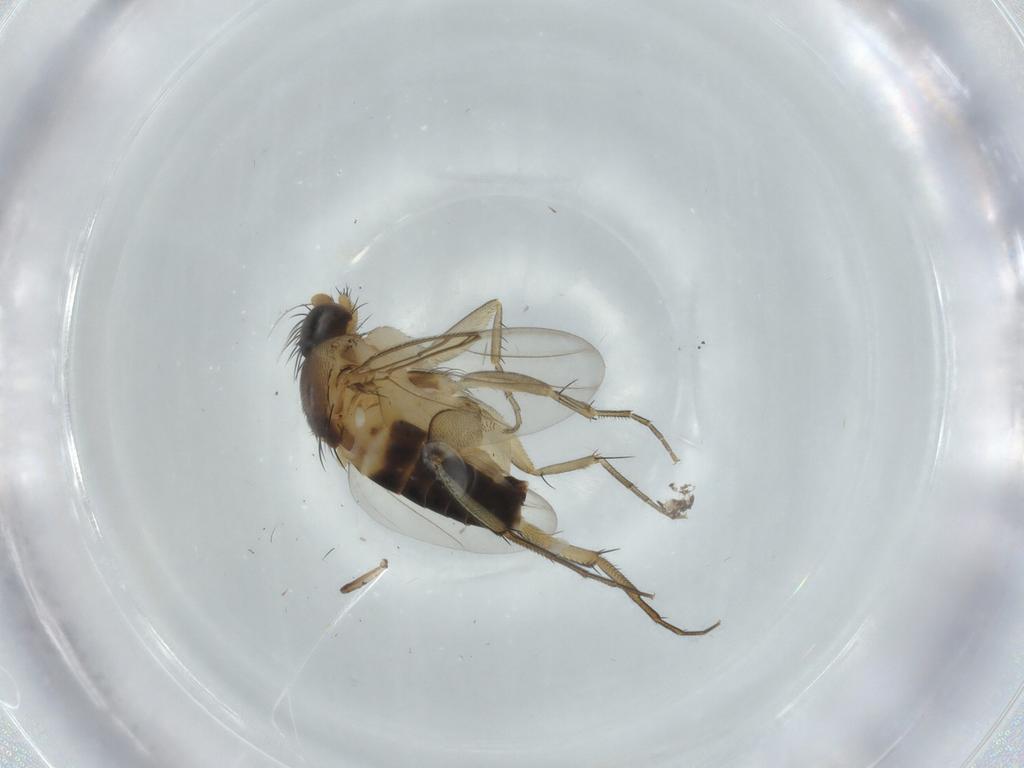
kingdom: Animalia
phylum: Arthropoda
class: Insecta
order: Diptera
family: Phoridae
